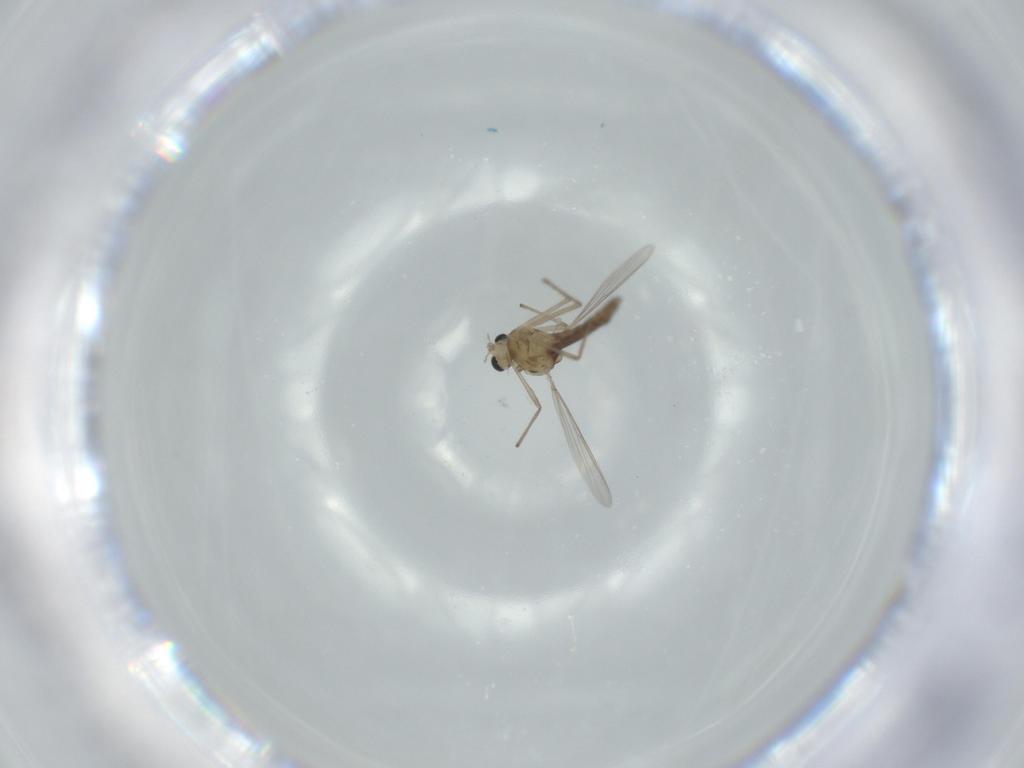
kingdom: Animalia
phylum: Arthropoda
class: Insecta
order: Diptera
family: Chironomidae
